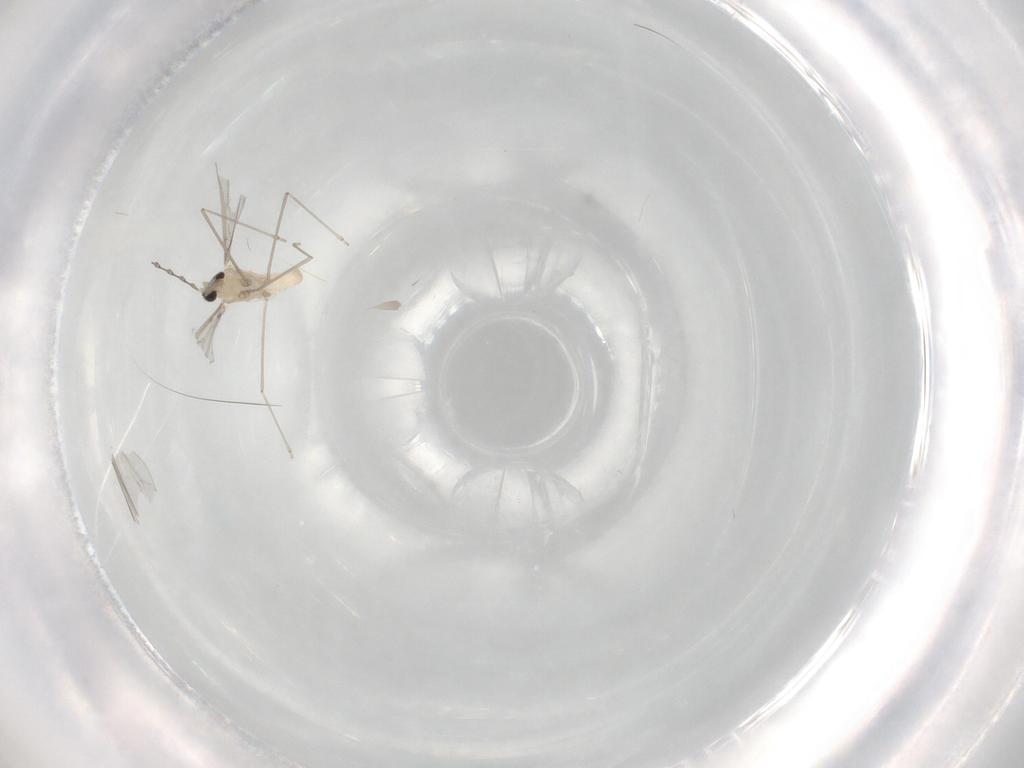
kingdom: Animalia
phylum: Arthropoda
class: Insecta
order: Diptera
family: Cecidomyiidae
